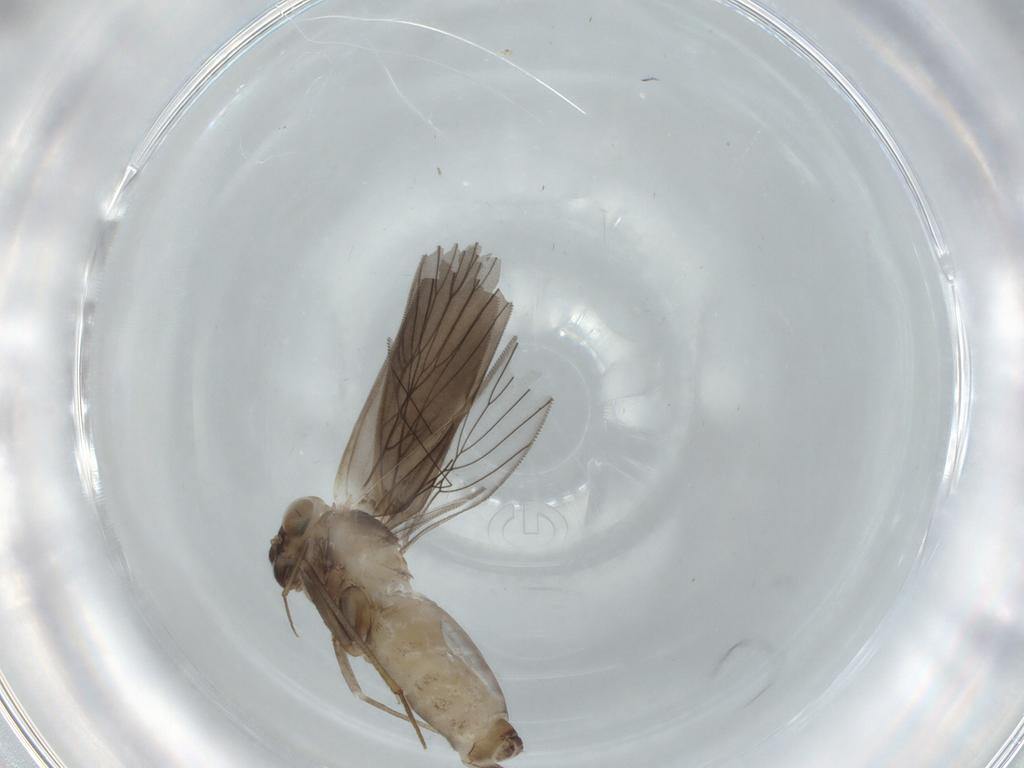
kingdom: Animalia
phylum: Arthropoda
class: Insecta
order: Psocodea
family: Lepidopsocidae
